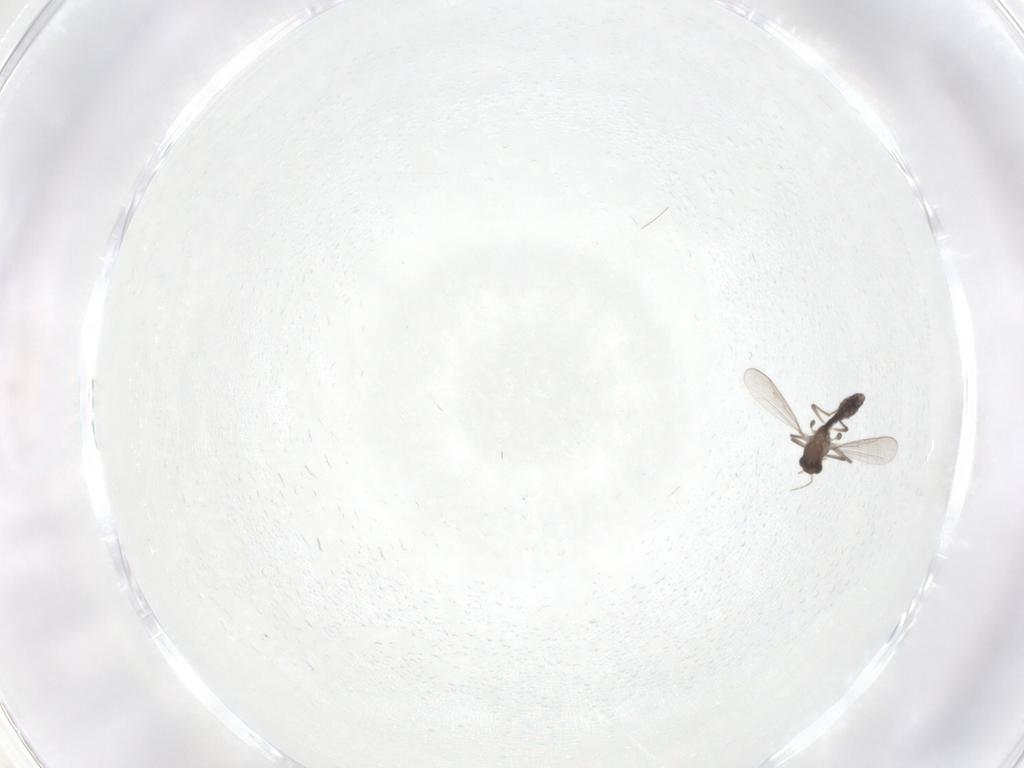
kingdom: Animalia
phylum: Arthropoda
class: Insecta
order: Diptera
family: Chironomidae
